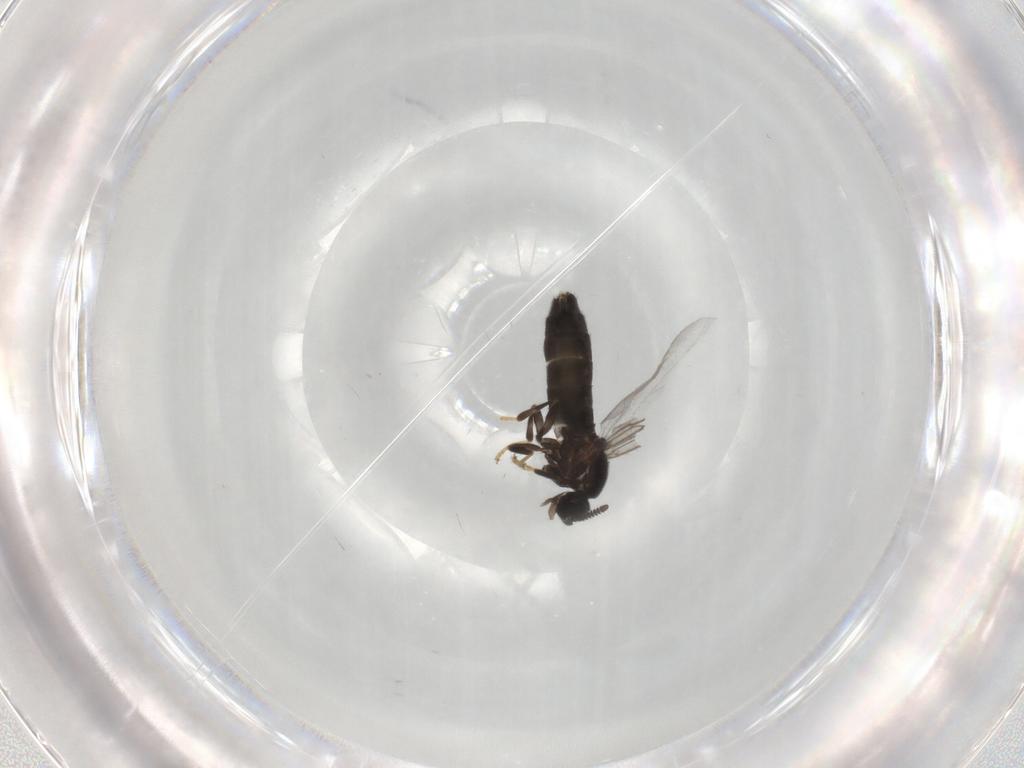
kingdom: Animalia
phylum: Arthropoda
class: Insecta
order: Diptera
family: Scatopsidae
